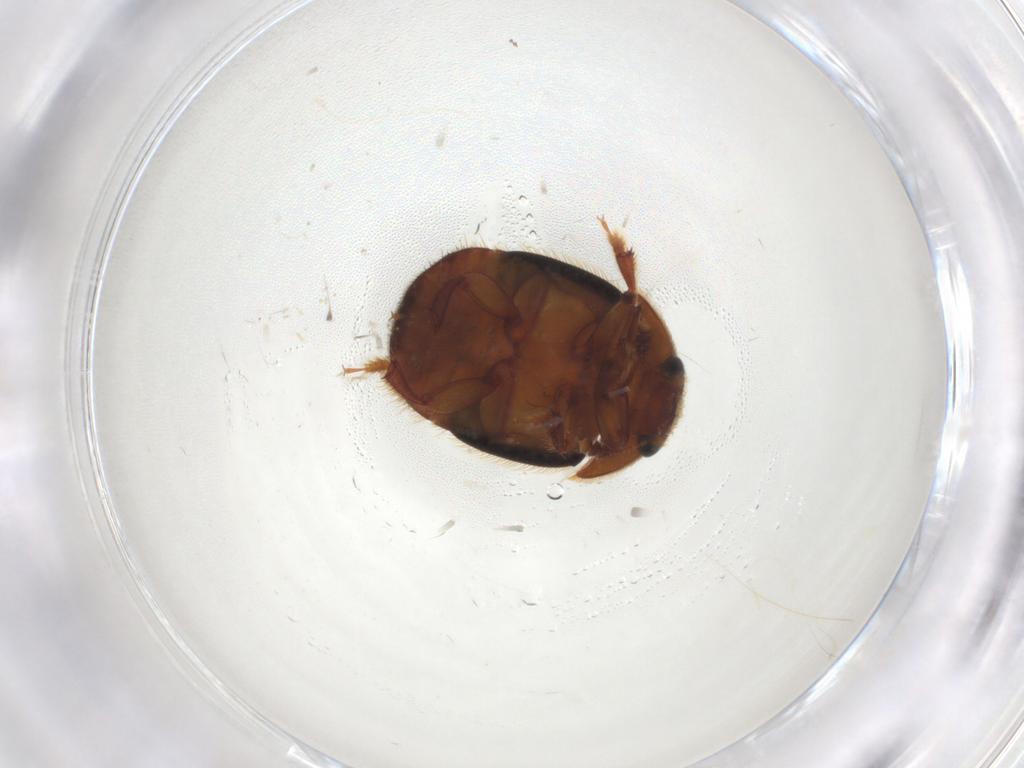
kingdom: Animalia
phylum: Arthropoda
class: Insecta
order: Coleoptera
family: Nitidulidae
